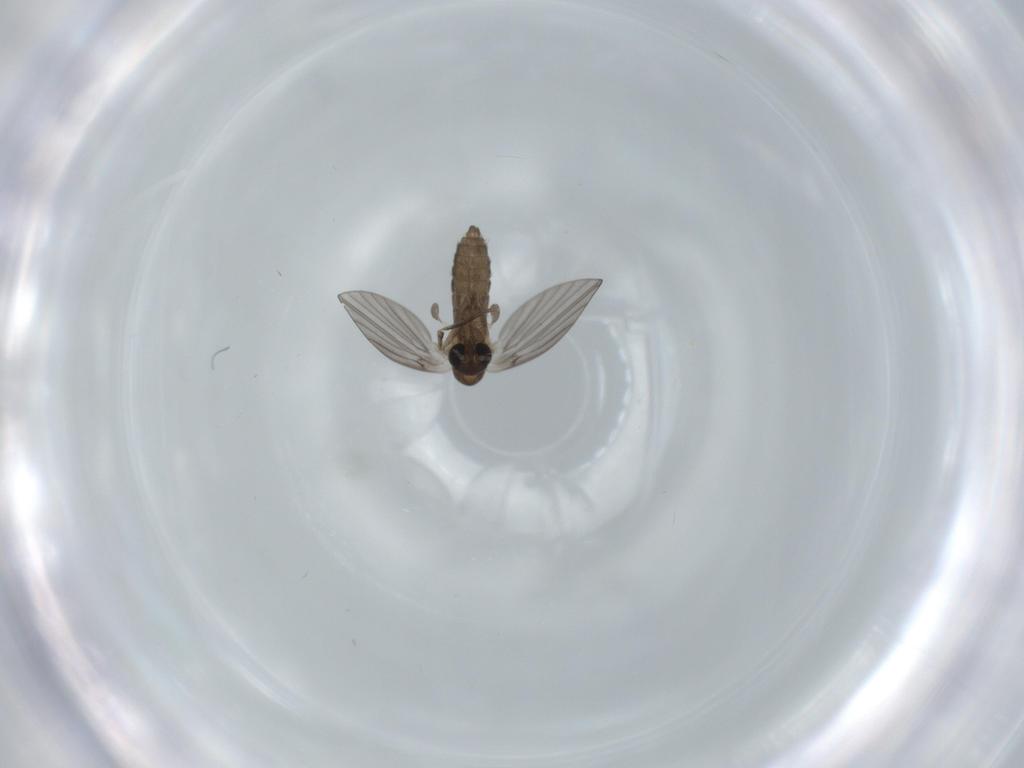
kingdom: Animalia
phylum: Arthropoda
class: Insecta
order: Diptera
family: Psychodidae
